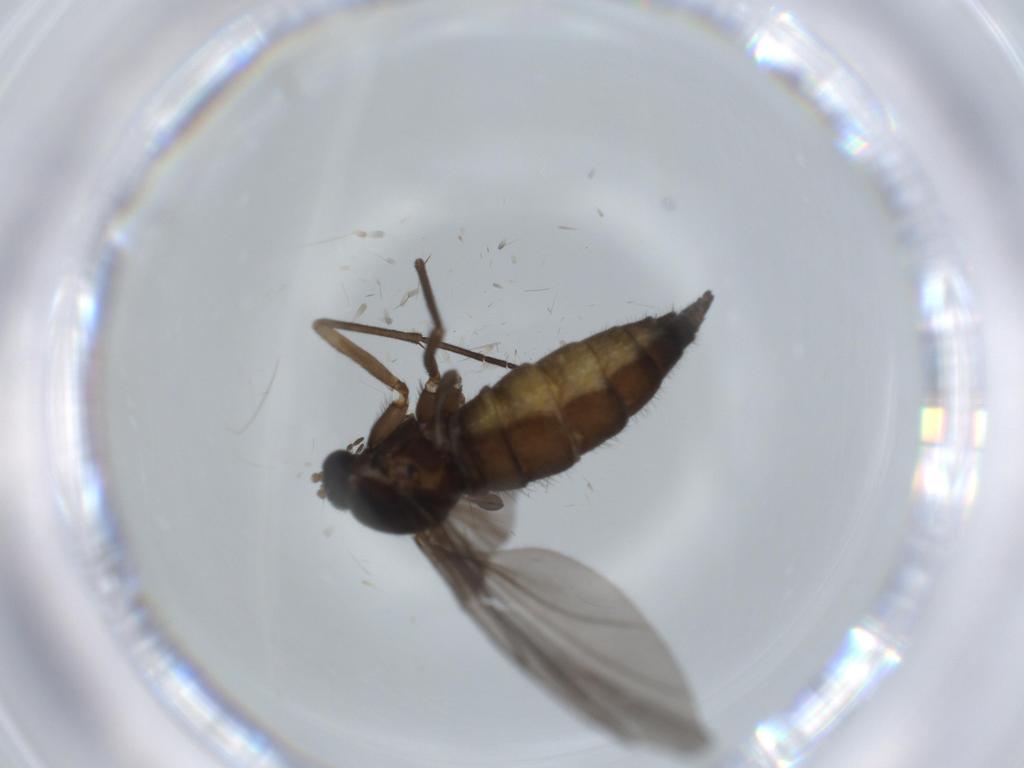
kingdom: Animalia
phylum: Arthropoda
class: Insecta
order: Diptera
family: Sciaridae
